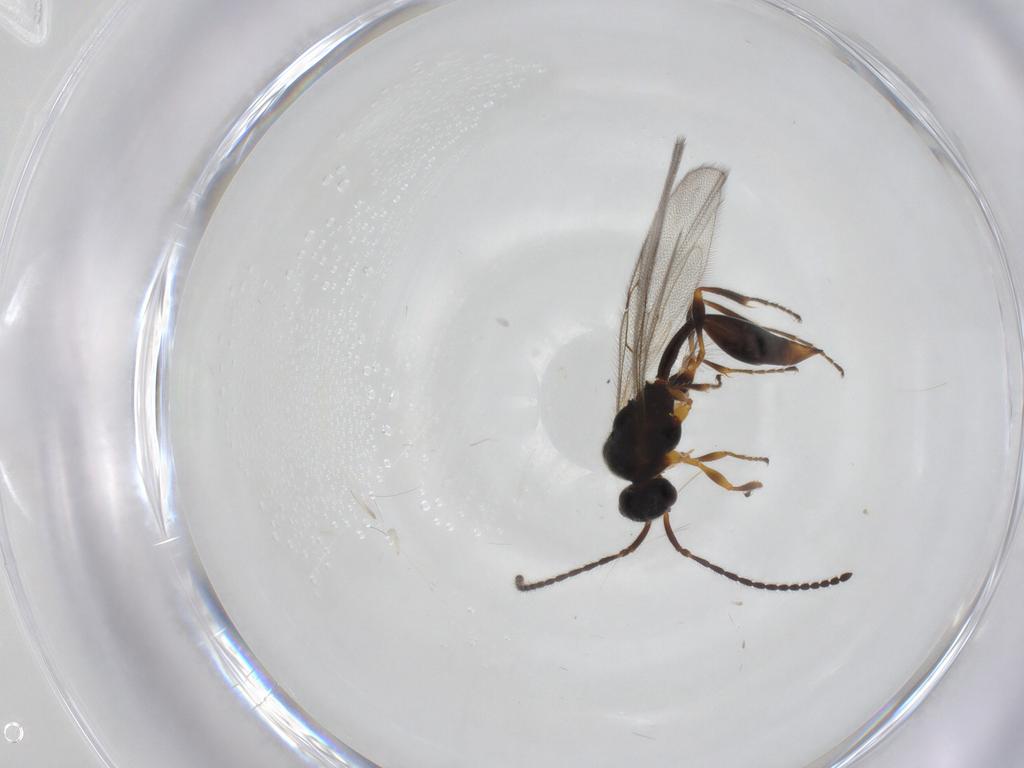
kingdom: Animalia
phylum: Arthropoda
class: Insecta
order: Hymenoptera
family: Diapriidae
